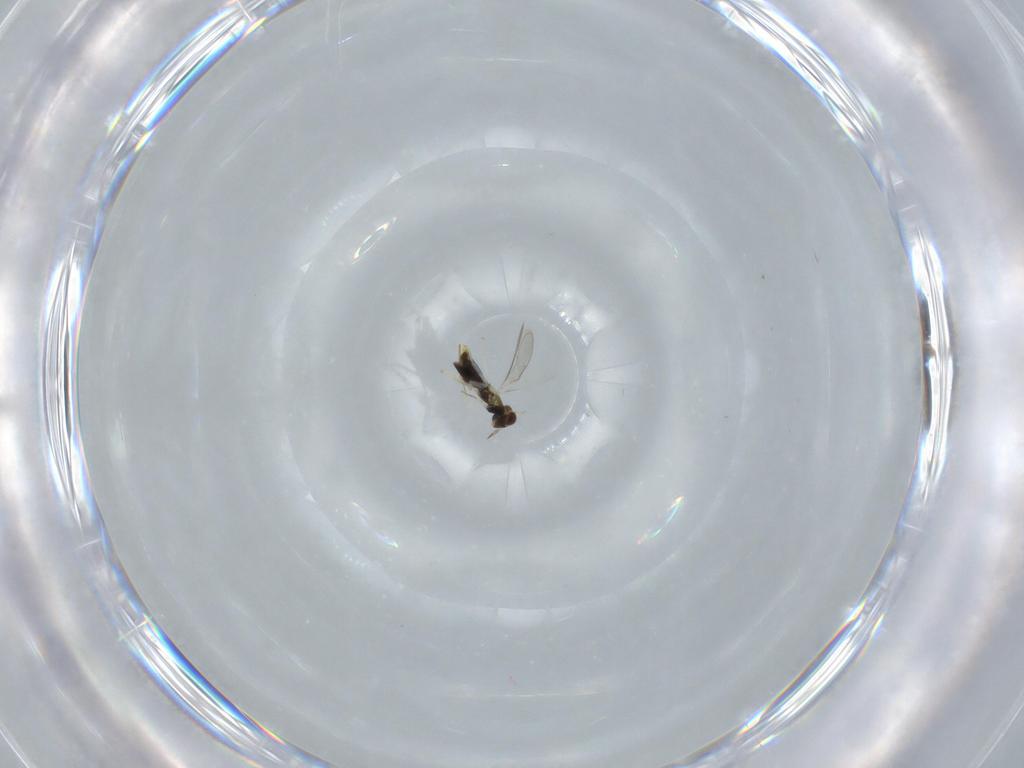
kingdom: Animalia
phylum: Arthropoda
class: Insecta
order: Hymenoptera
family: Aphelinidae
